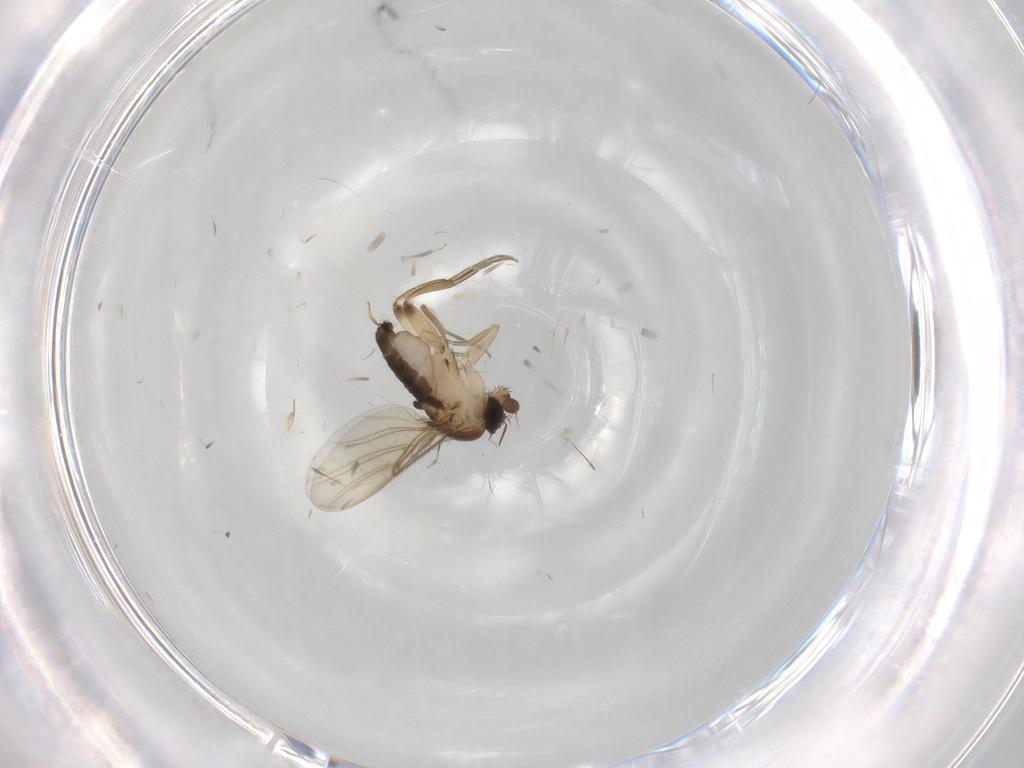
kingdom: Animalia
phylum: Arthropoda
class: Insecta
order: Diptera
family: Phoridae
